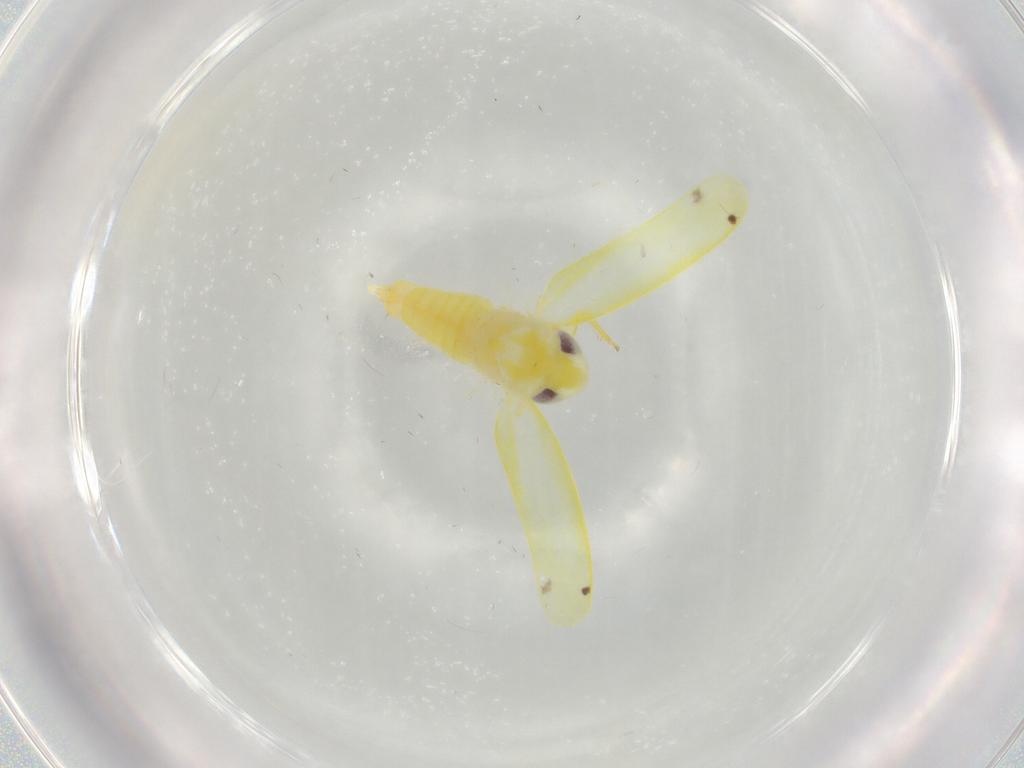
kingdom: Animalia
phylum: Arthropoda
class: Insecta
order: Hemiptera
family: Cicadellidae
